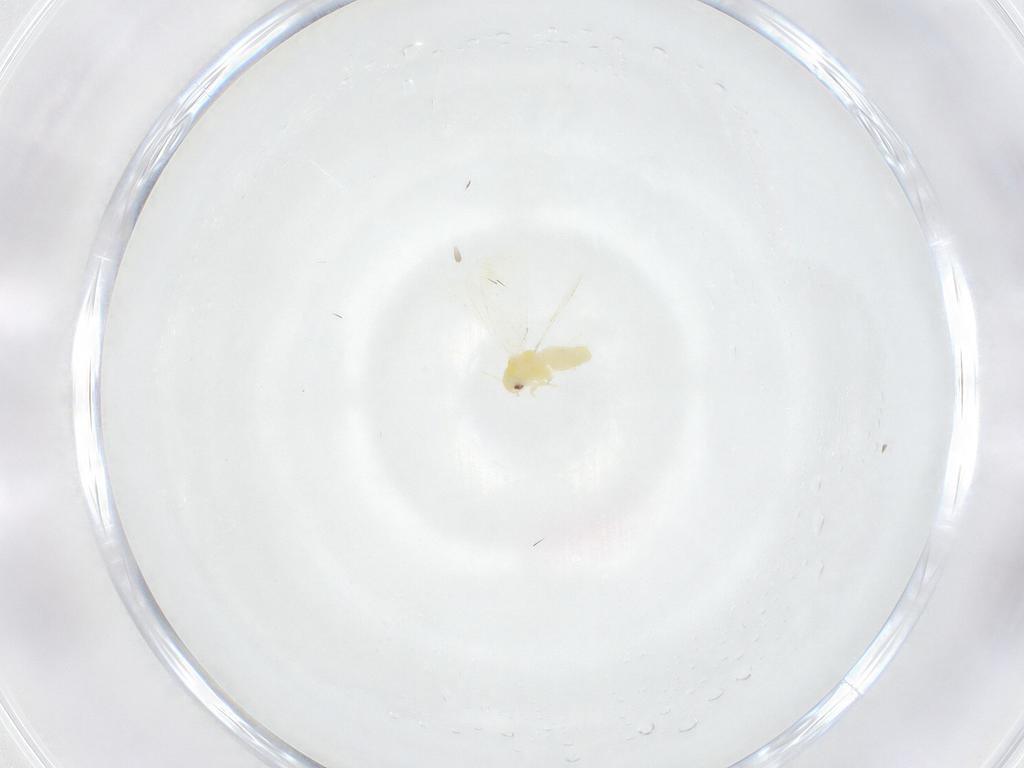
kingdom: Animalia
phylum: Arthropoda
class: Insecta
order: Hemiptera
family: Aleyrodidae
